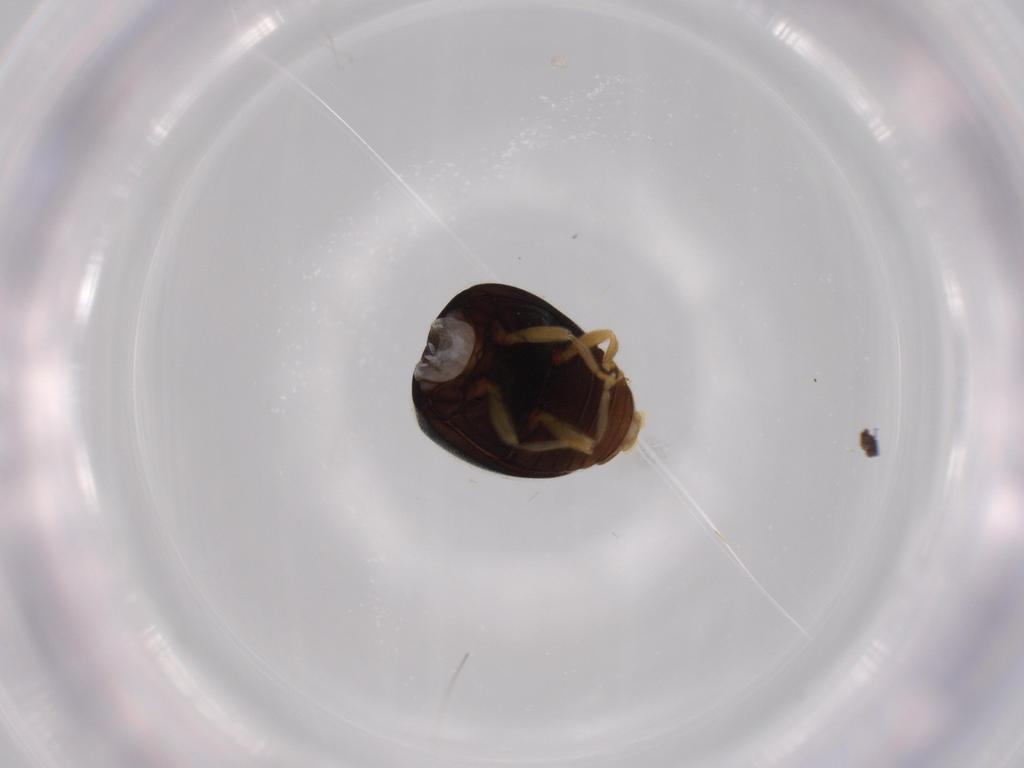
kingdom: Animalia
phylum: Arthropoda
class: Insecta
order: Coleoptera
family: Coccinellidae
